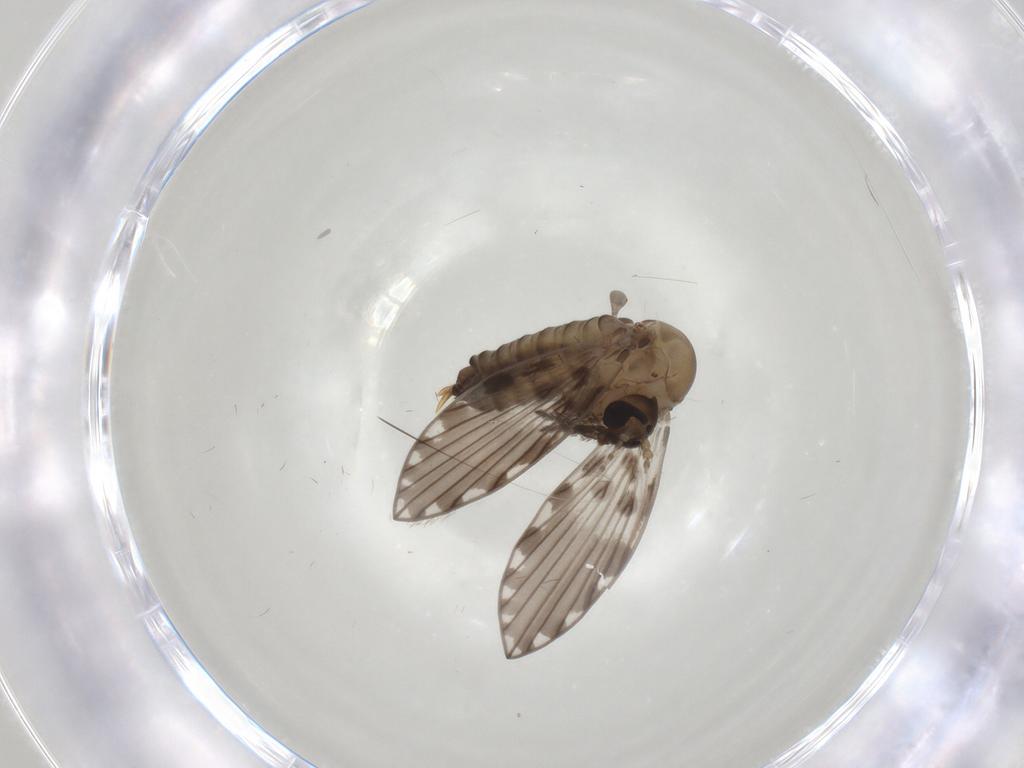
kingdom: Animalia
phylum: Arthropoda
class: Insecta
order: Diptera
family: Psychodidae
